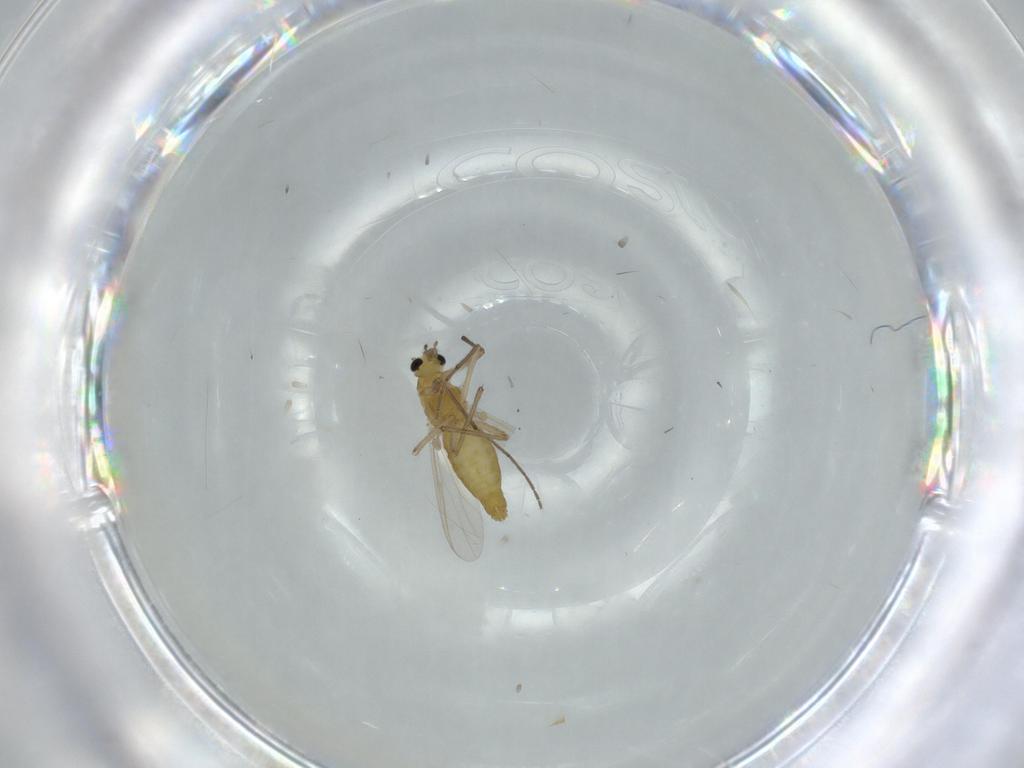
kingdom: Animalia
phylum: Arthropoda
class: Insecta
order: Diptera
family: Chironomidae
